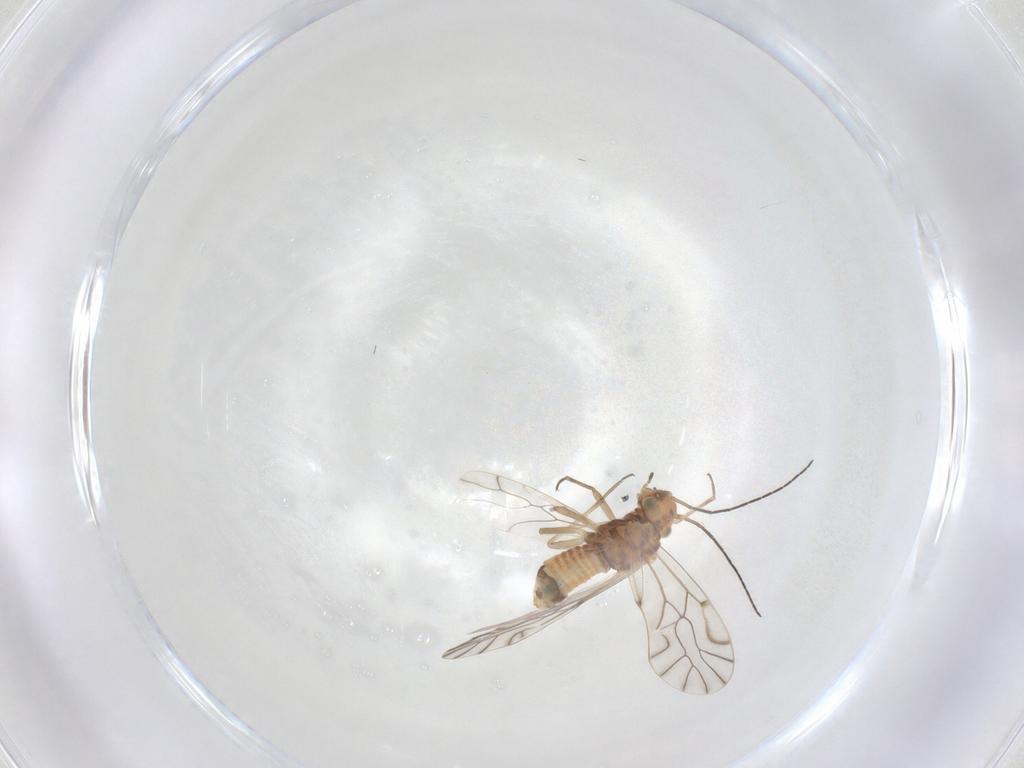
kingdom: Animalia
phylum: Arthropoda
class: Insecta
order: Psocodea
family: Lachesillidae
